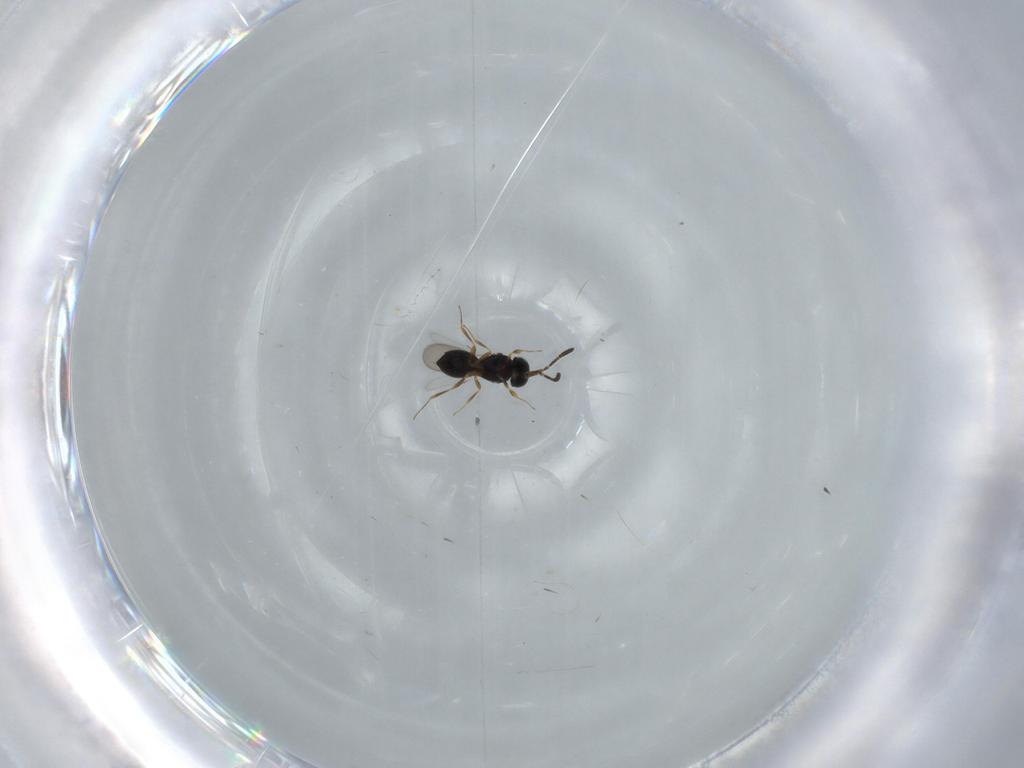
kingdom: Animalia
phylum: Arthropoda
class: Insecta
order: Hymenoptera
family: Scelionidae
